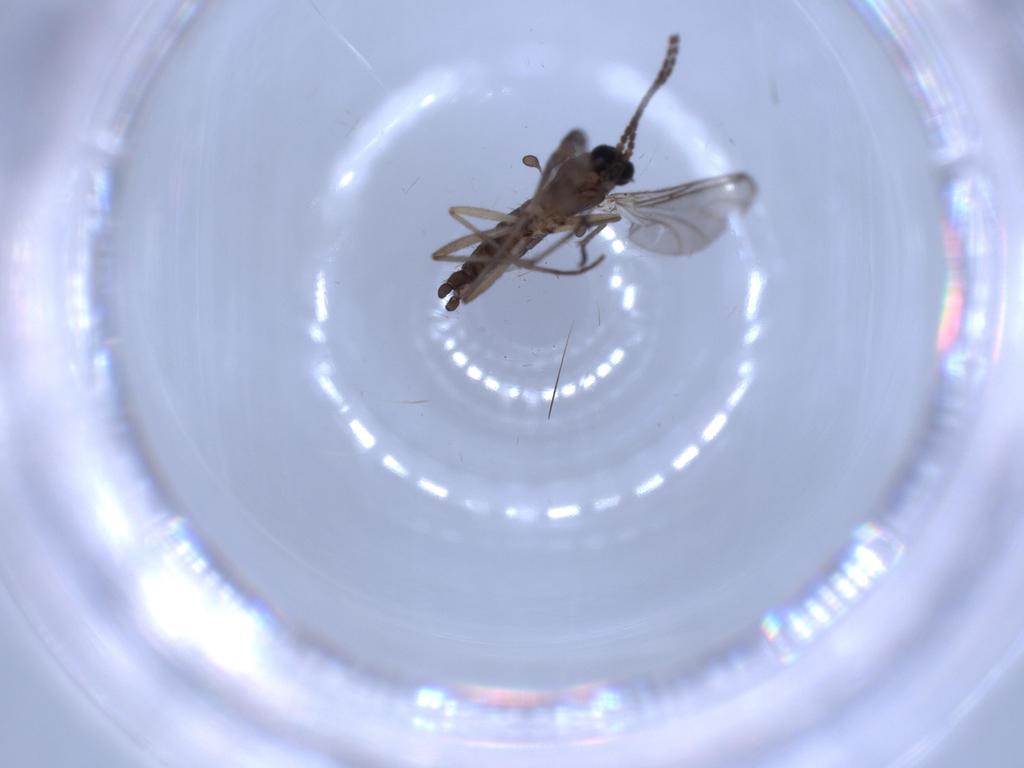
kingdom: Animalia
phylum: Arthropoda
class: Insecta
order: Diptera
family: Sciaridae
